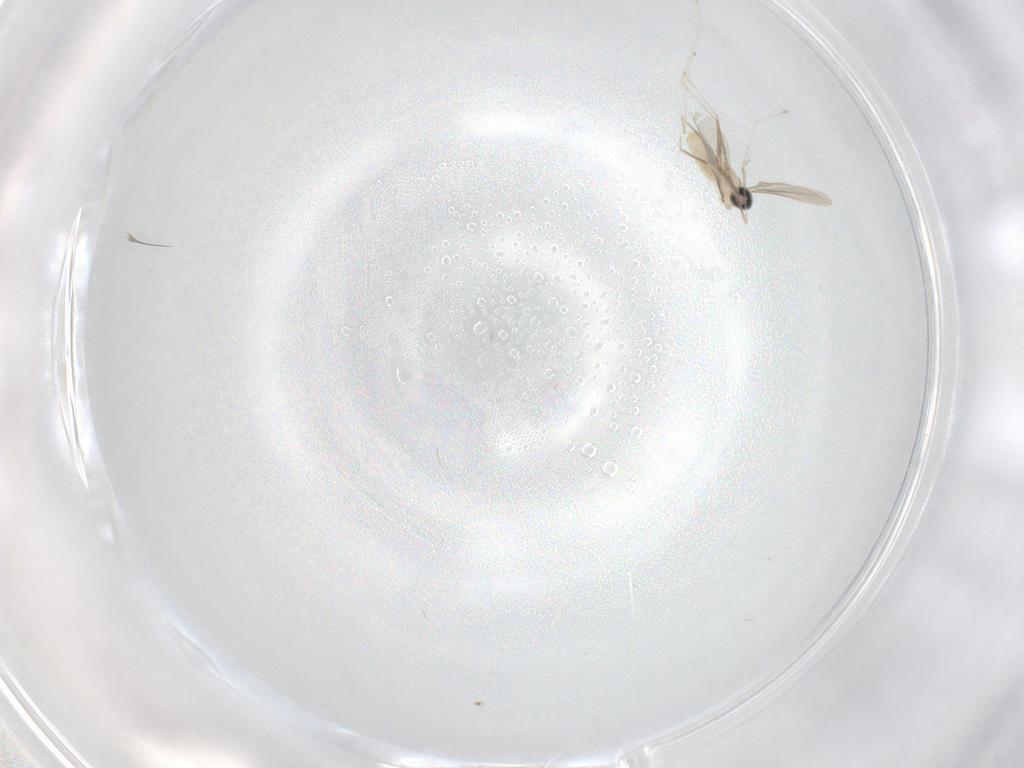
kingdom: Animalia
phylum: Arthropoda
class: Insecta
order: Diptera
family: Cecidomyiidae
